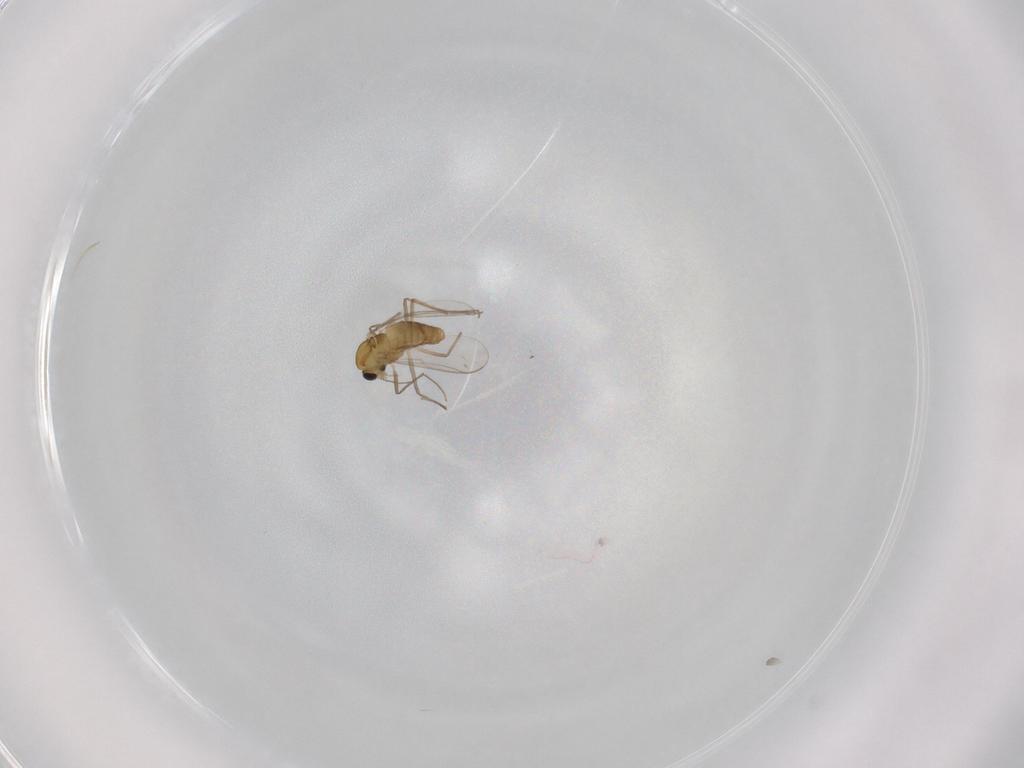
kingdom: Animalia
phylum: Arthropoda
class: Insecta
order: Diptera
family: Psychodidae
